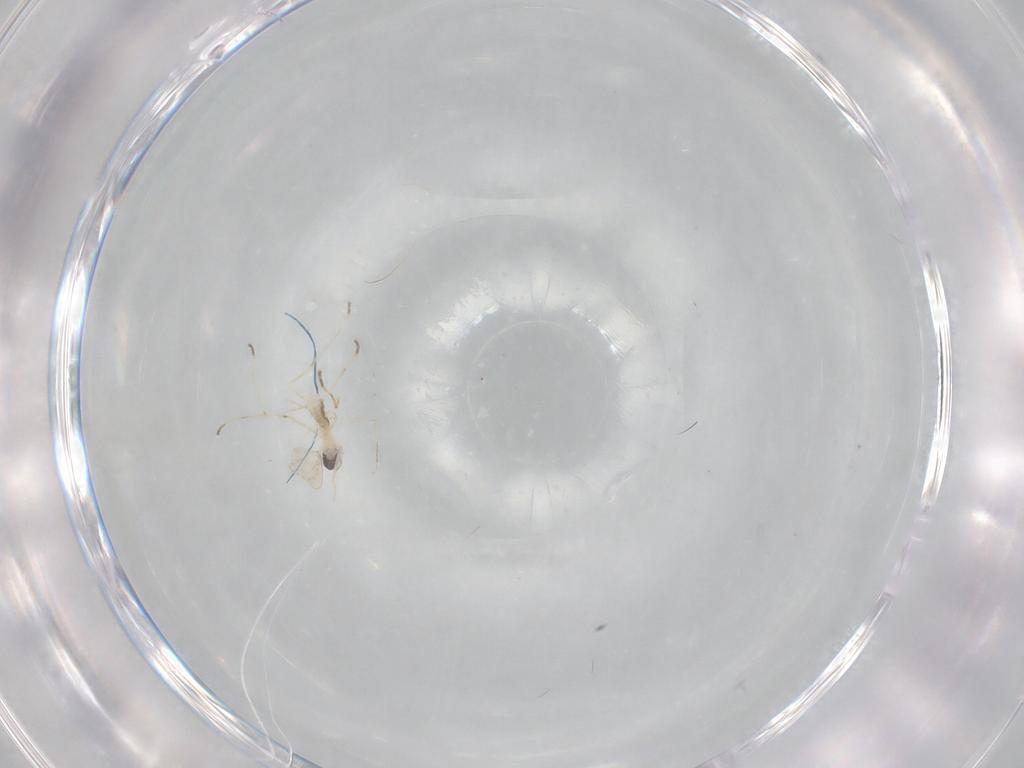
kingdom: Animalia
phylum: Arthropoda
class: Insecta
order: Diptera
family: Cecidomyiidae
